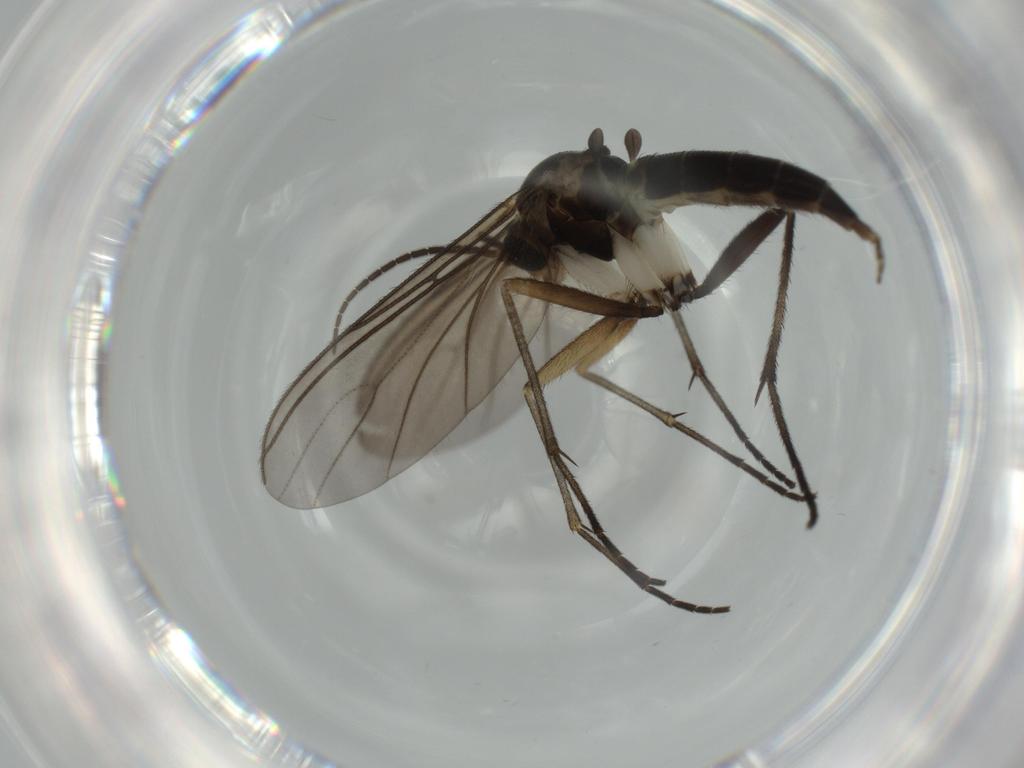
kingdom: Animalia
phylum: Arthropoda
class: Insecta
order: Diptera
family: Sciaridae
